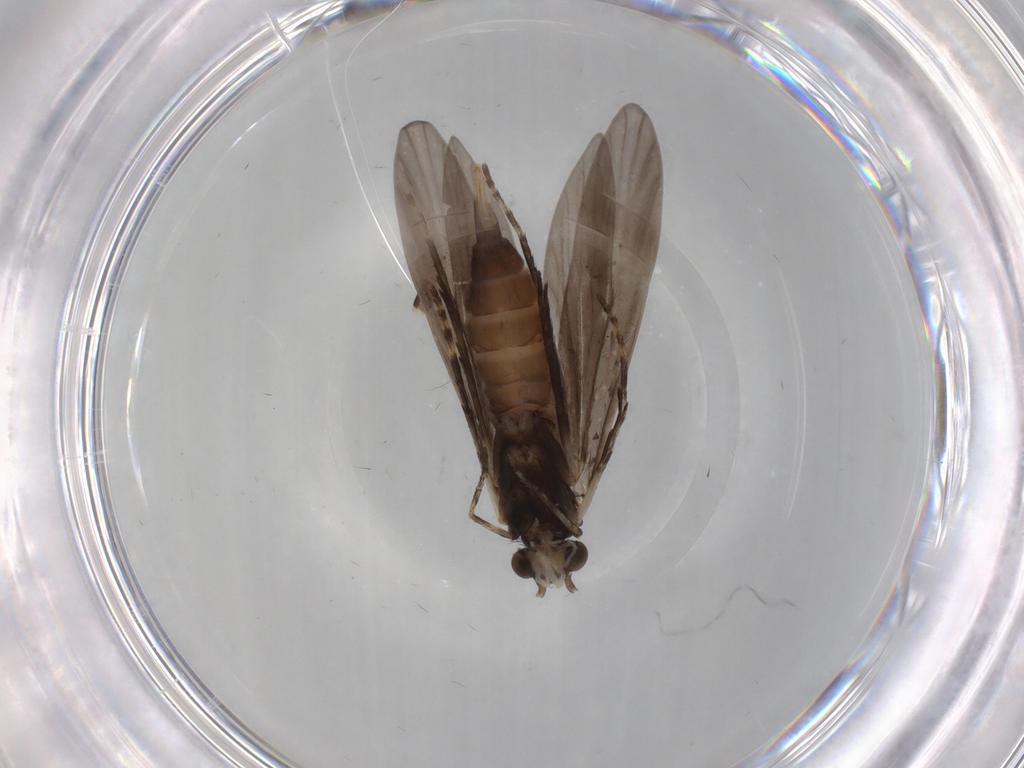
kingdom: Animalia
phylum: Arthropoda
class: Insecta
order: Trichoptera
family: Xiphocentronidae
